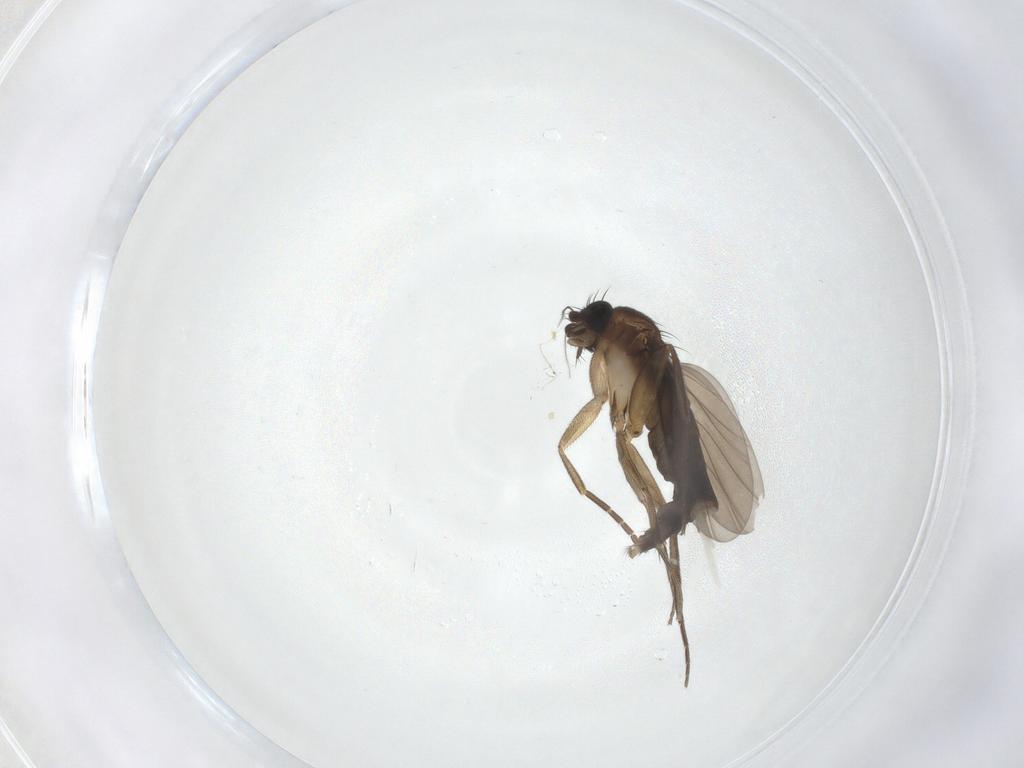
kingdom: Animalia
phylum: Arthropoda
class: Insecta
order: Diptera
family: Phoridae
